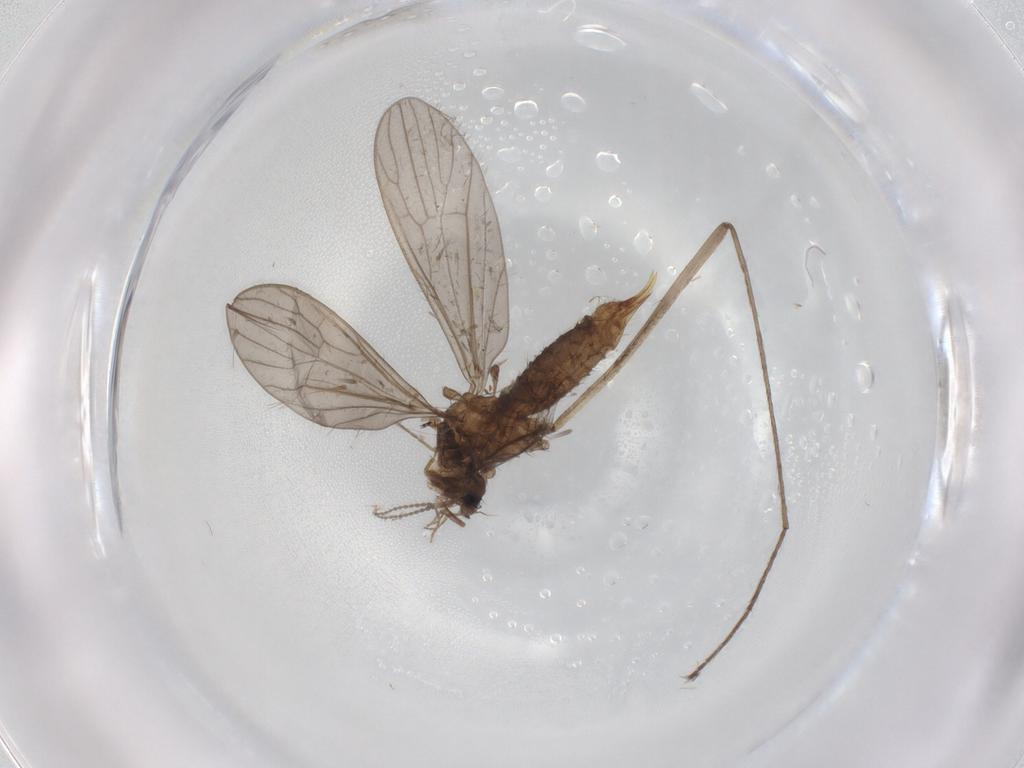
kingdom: Animalia
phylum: Arthropoda
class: Insecta
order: Diptera
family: Limoniidae
